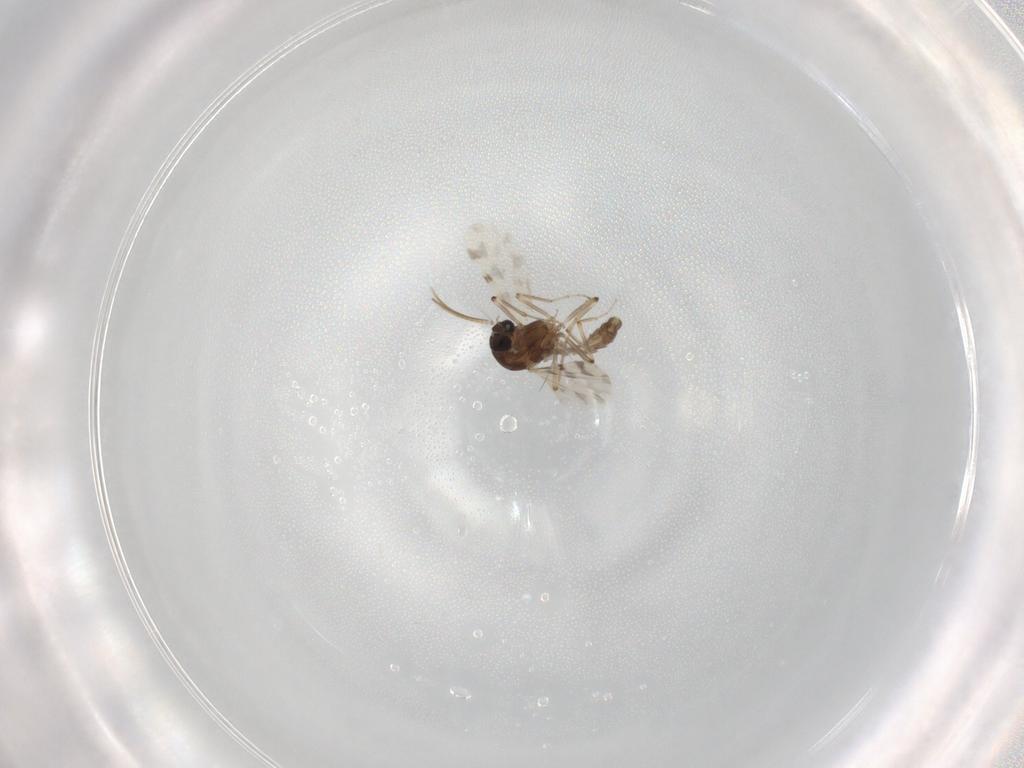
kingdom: Animalia
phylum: Arthropoda
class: Insecta
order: Diptera
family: Ceratopogonidae
